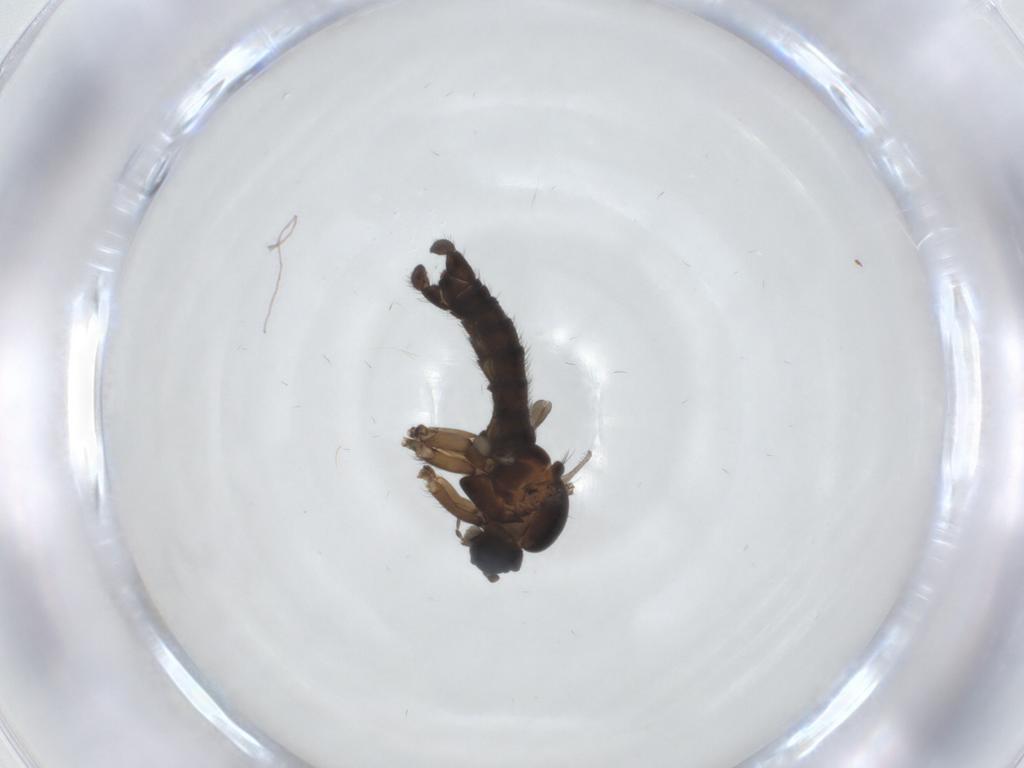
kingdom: Animalia
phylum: Arthropoda
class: Insecta
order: Diptera
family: Sciaridae
